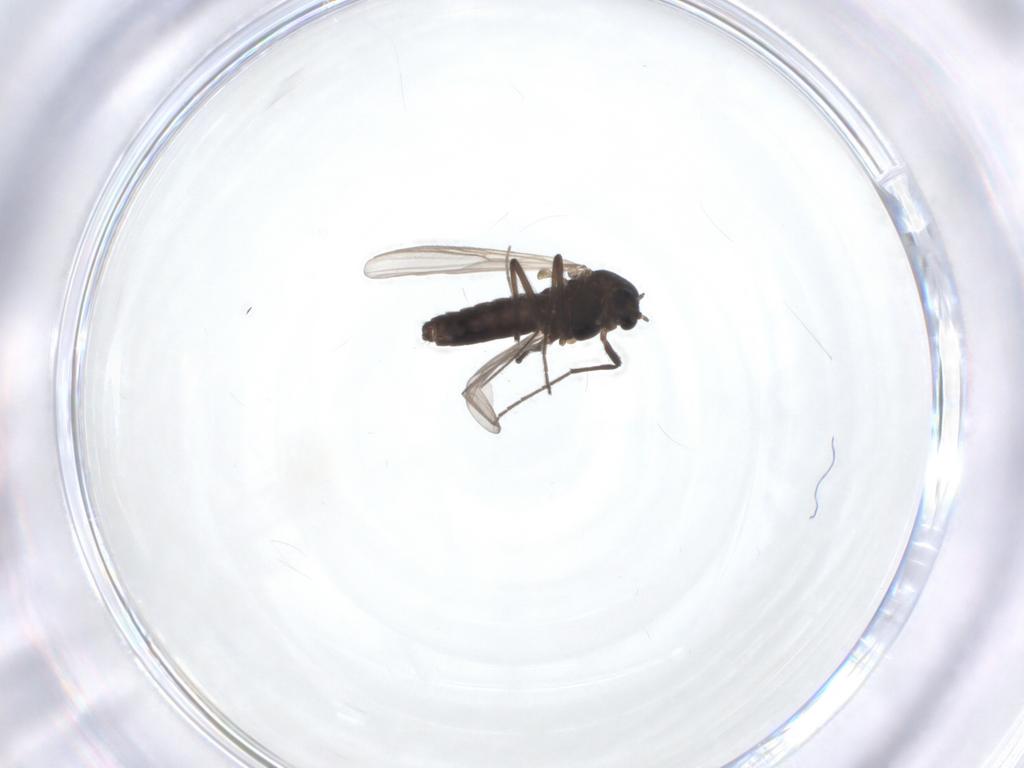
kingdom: Animalia
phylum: Arthropoda
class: Insecta
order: Diptera
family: Chironomidae
